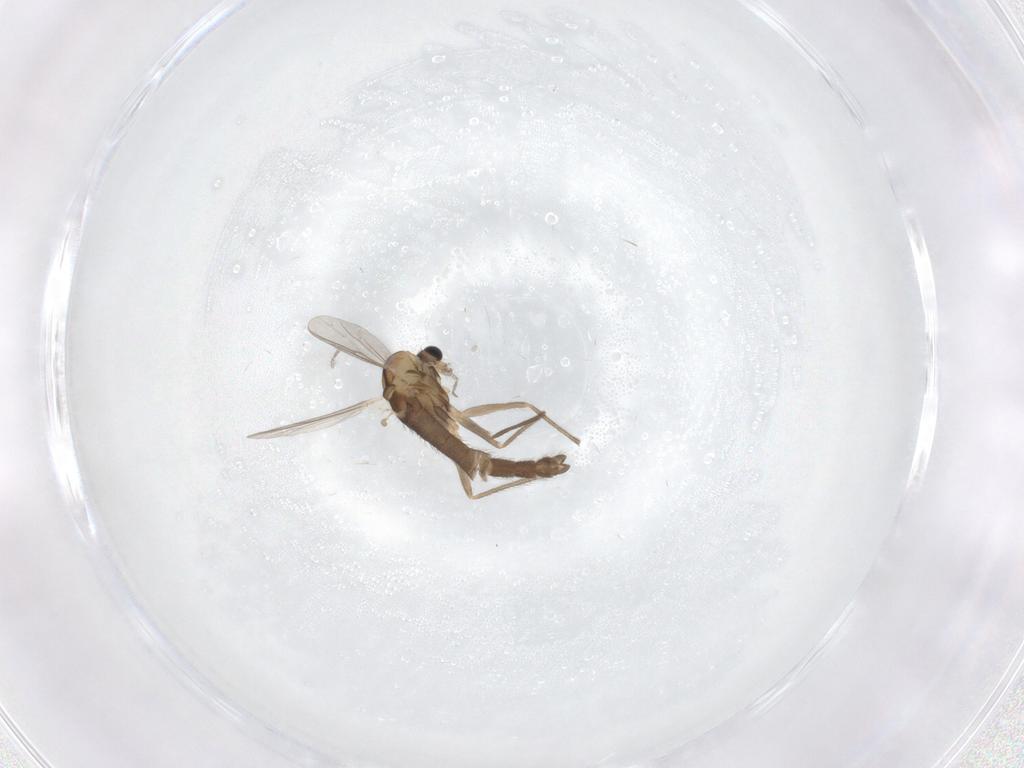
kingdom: Animalia
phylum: Arthropoda
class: Insecta
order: Diptera
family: Chironomidae
